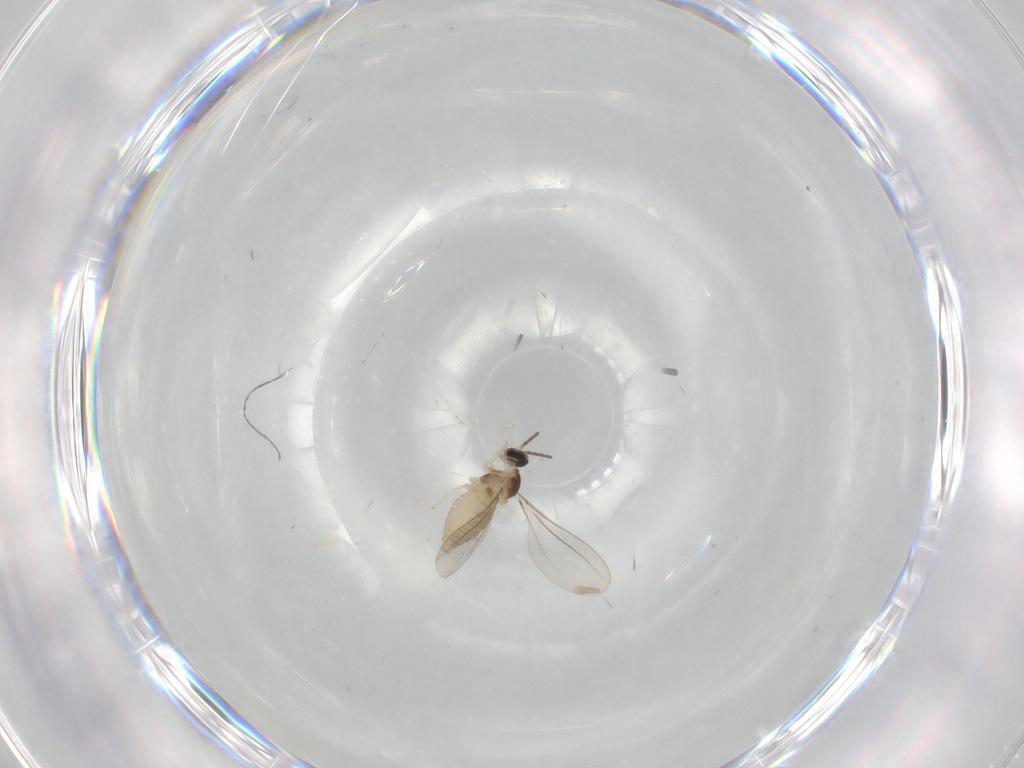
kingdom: Animalia
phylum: Arthropoda
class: Insecta
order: Diptera
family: Cecidomyiidae
